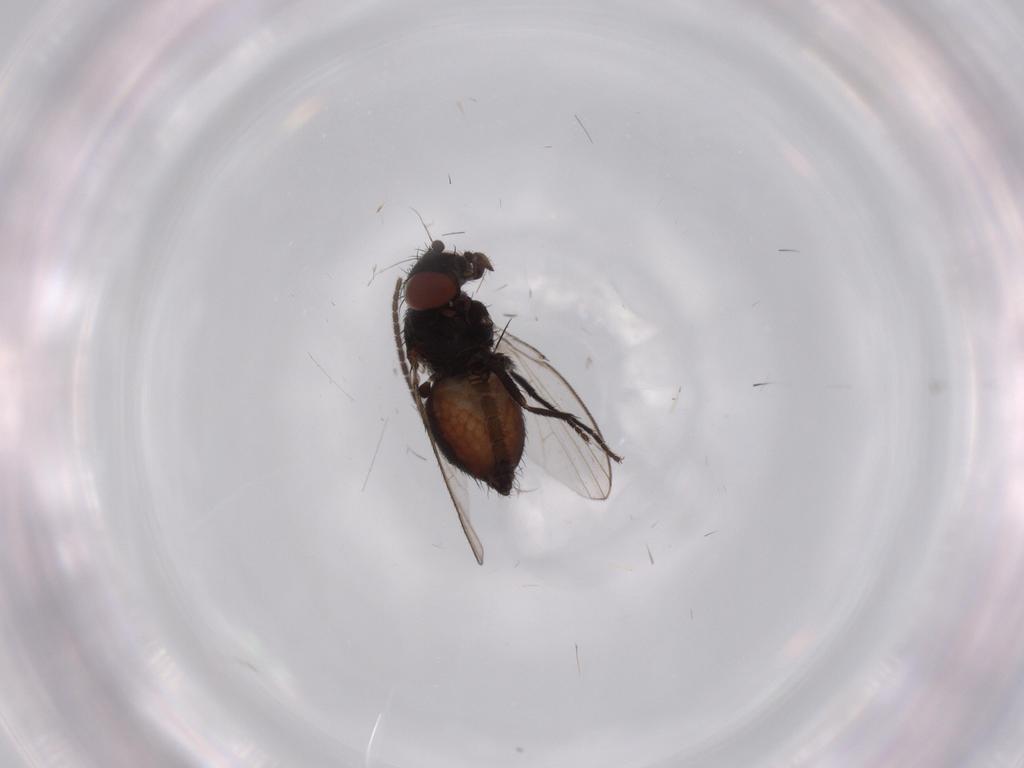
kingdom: Animalia
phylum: Arthropoda
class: Insecta
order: Diptera
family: Milichiidae
